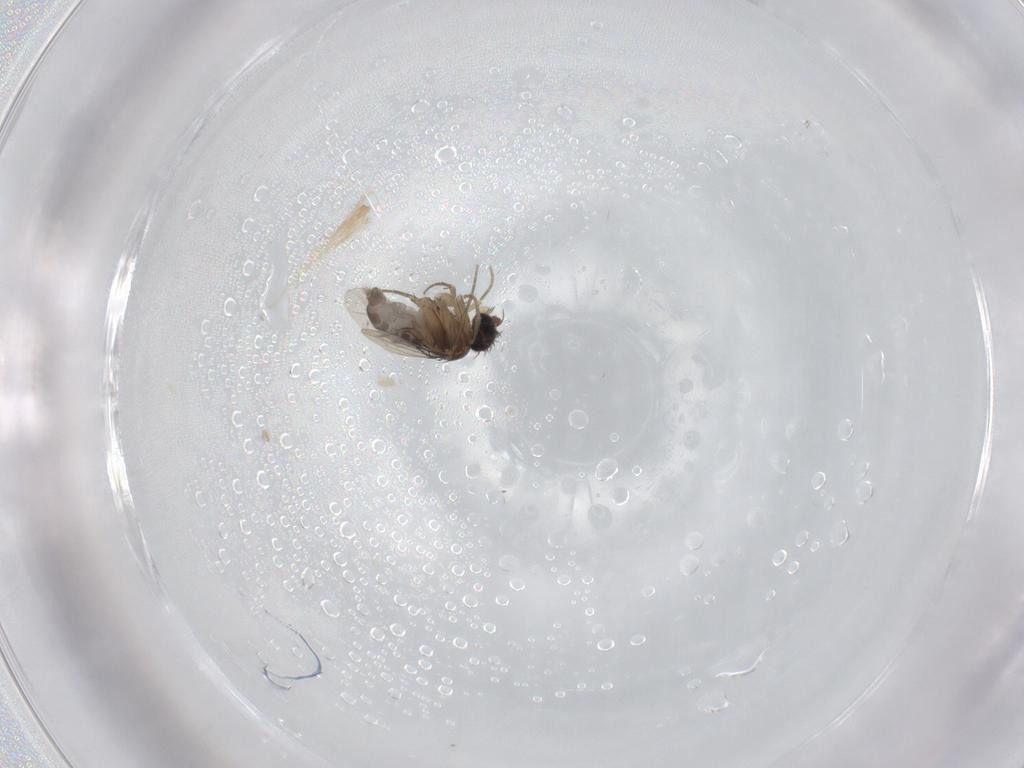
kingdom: Animalia
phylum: Arthropoda
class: Insecta
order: Diptera
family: Phoridae
